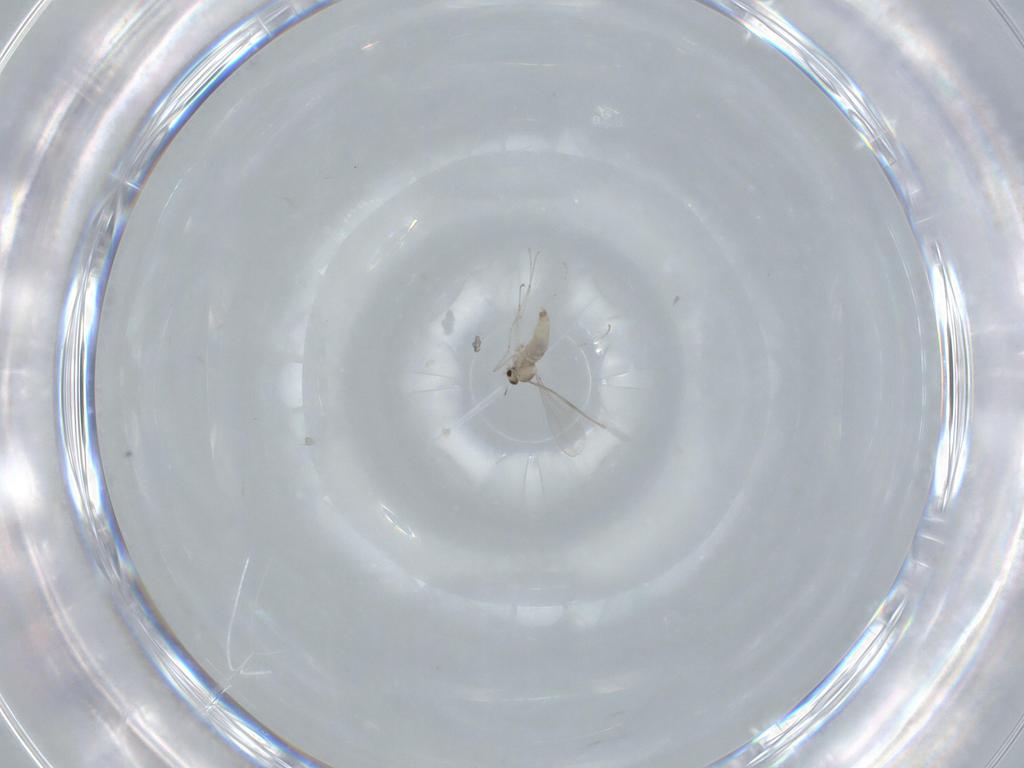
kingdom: Animalia
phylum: Arthropoda
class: Insecta
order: Diptera
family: Cecidomyiidae
